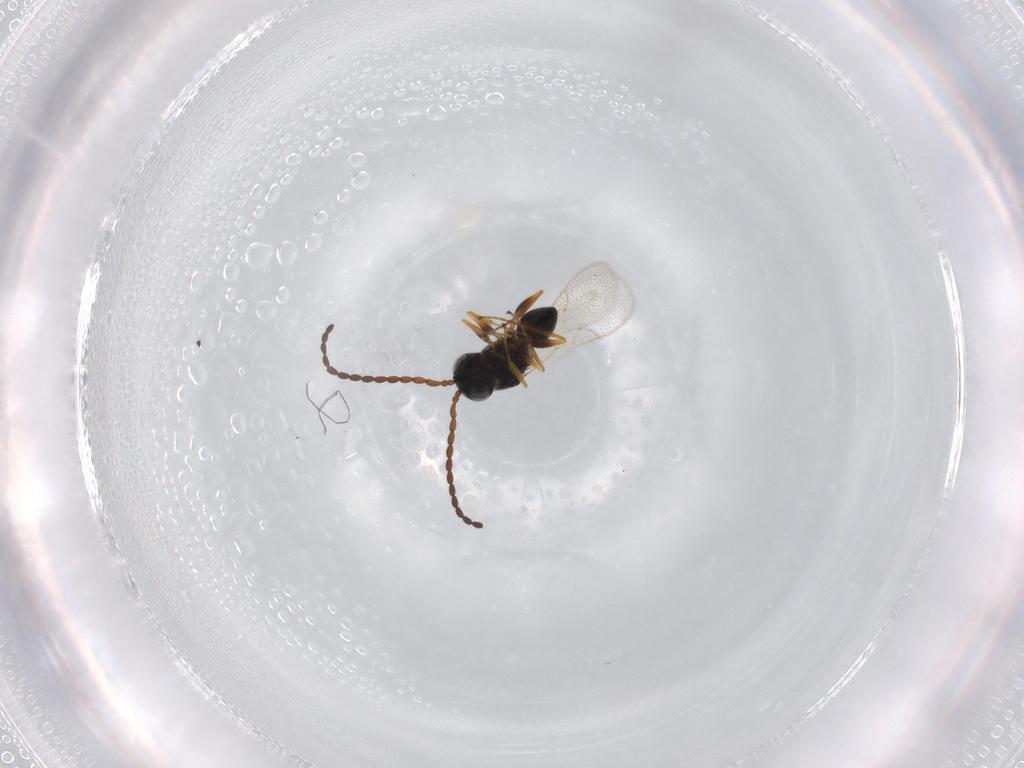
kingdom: Animalia
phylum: Arthropoda
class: Insecta
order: Hymenoptera
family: Figitidae
